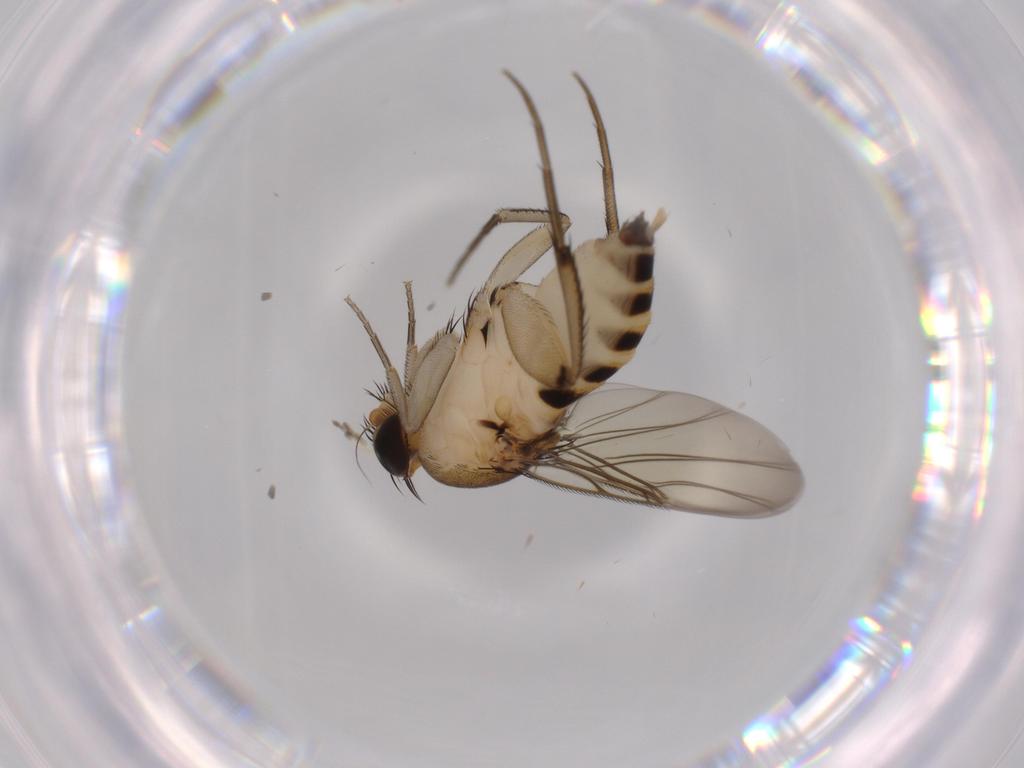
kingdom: Animalia
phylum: Arthropoda
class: Insecta
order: Diptera
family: Phoridae
